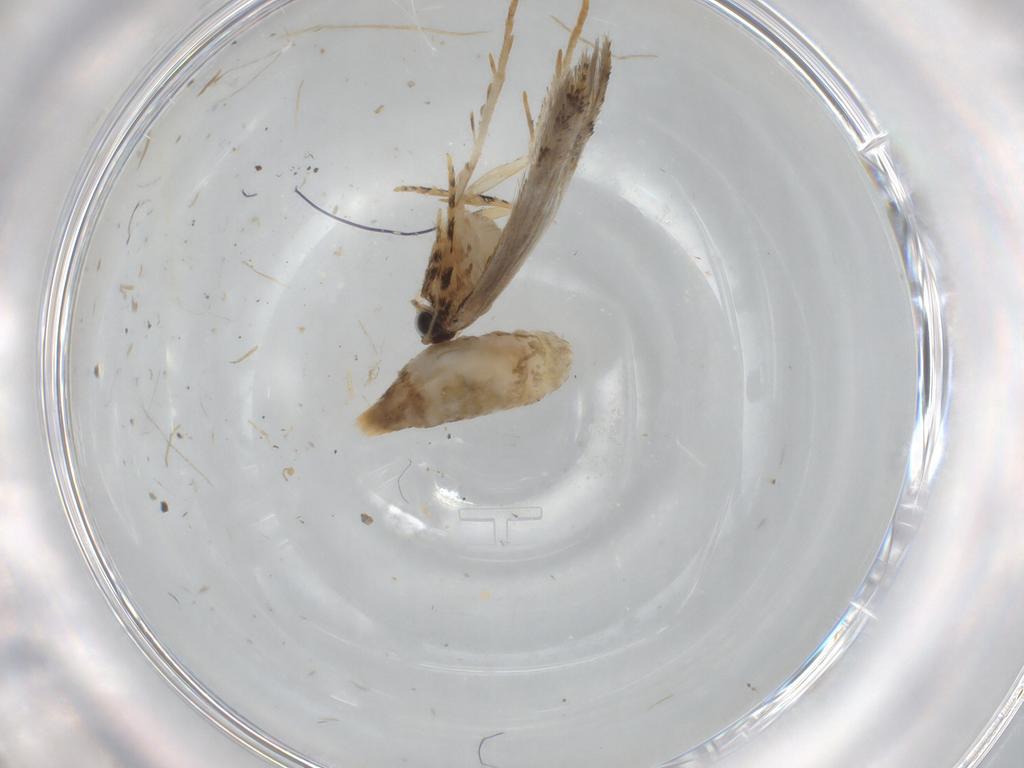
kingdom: Animalia
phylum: Arthropoda
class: Insecta
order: Lepidoptera
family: Tineidae
